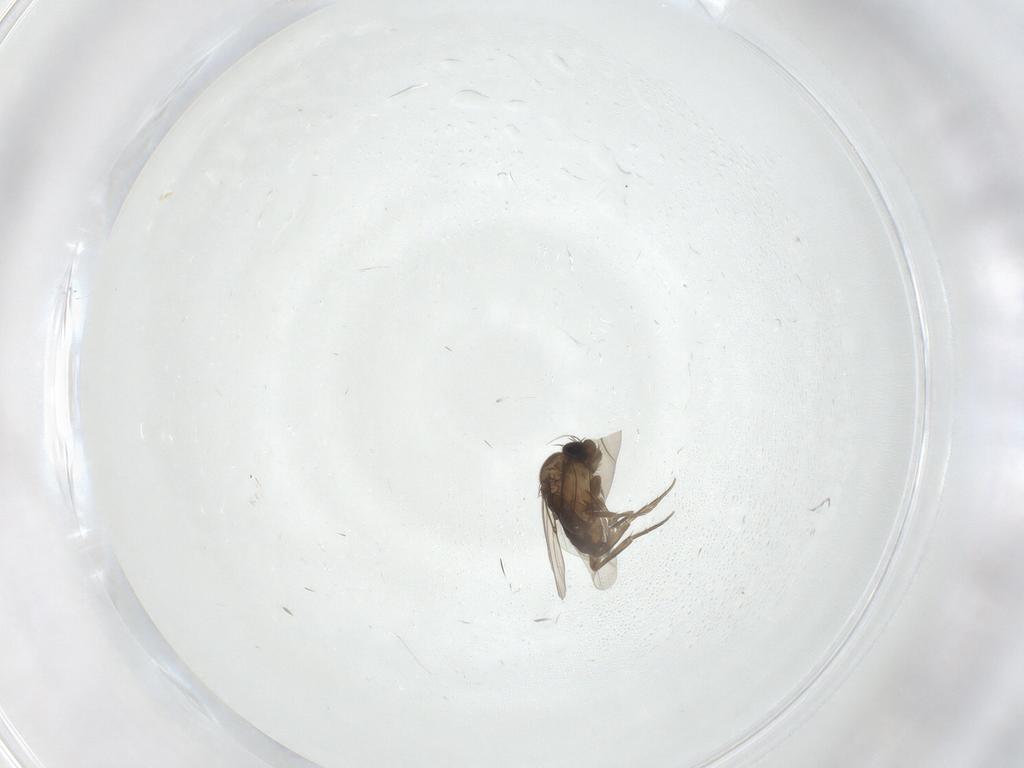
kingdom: Animalia
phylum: Arthropoda
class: Insecta
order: Diptera
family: Phoridae
